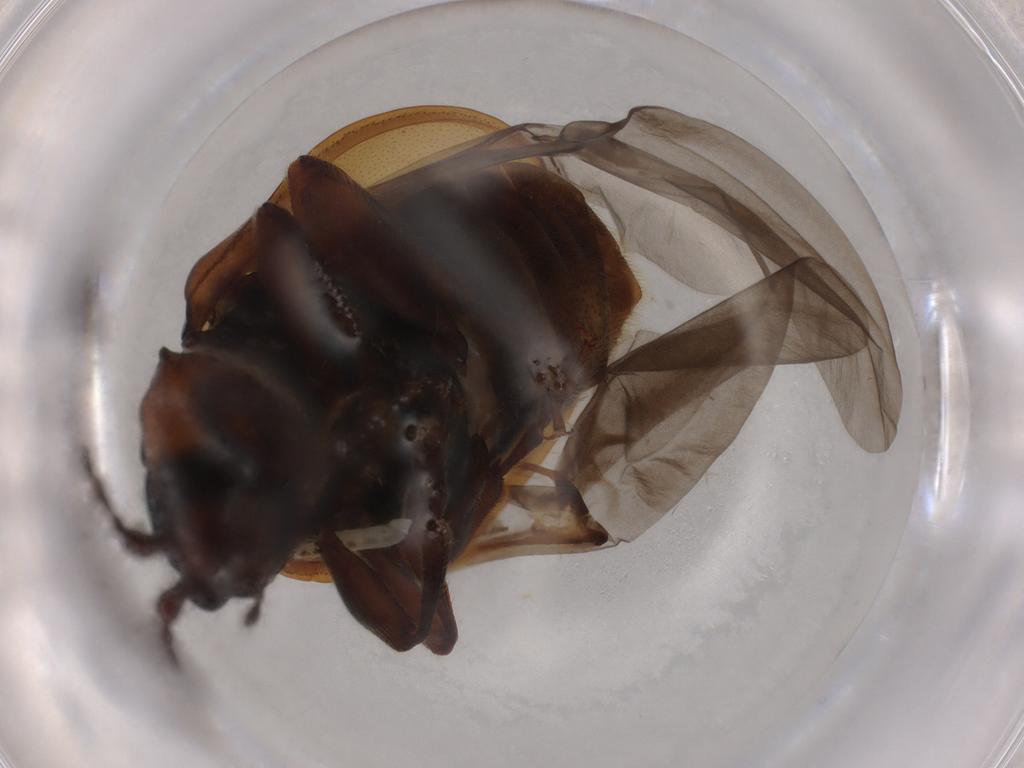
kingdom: Animalia
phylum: Arthropoda
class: Insecta
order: Coleoptera
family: Chrysomelidae
